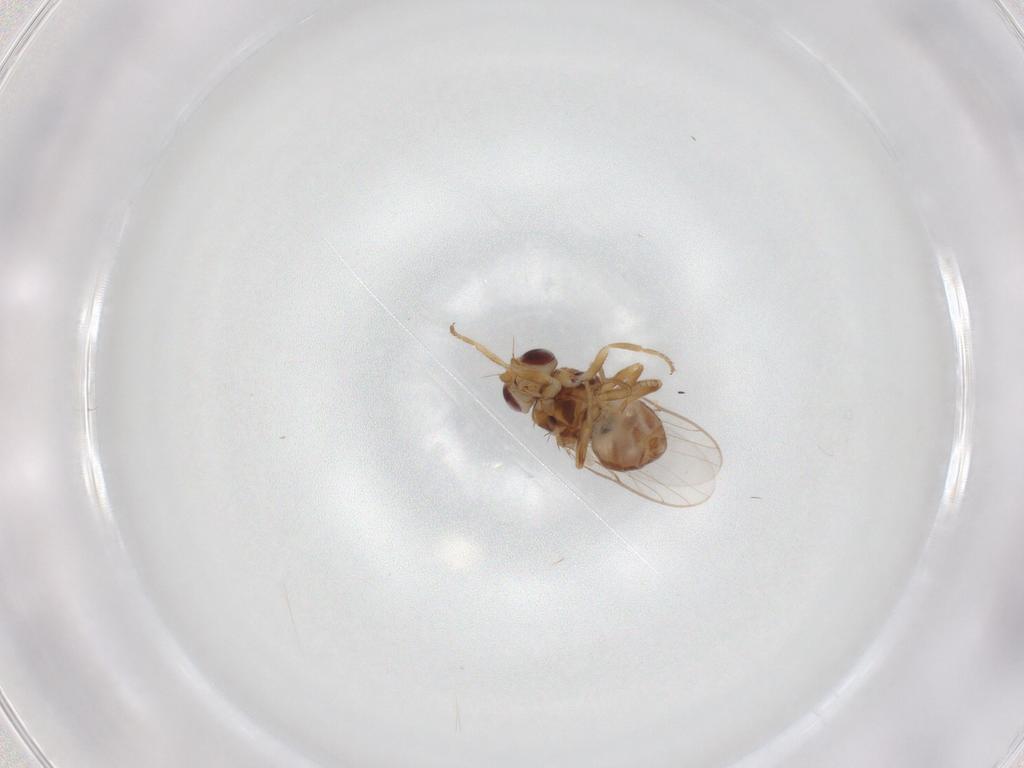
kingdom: Animalia
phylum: Arthropoda
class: Insecta
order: Diptera
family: Chloropidae
